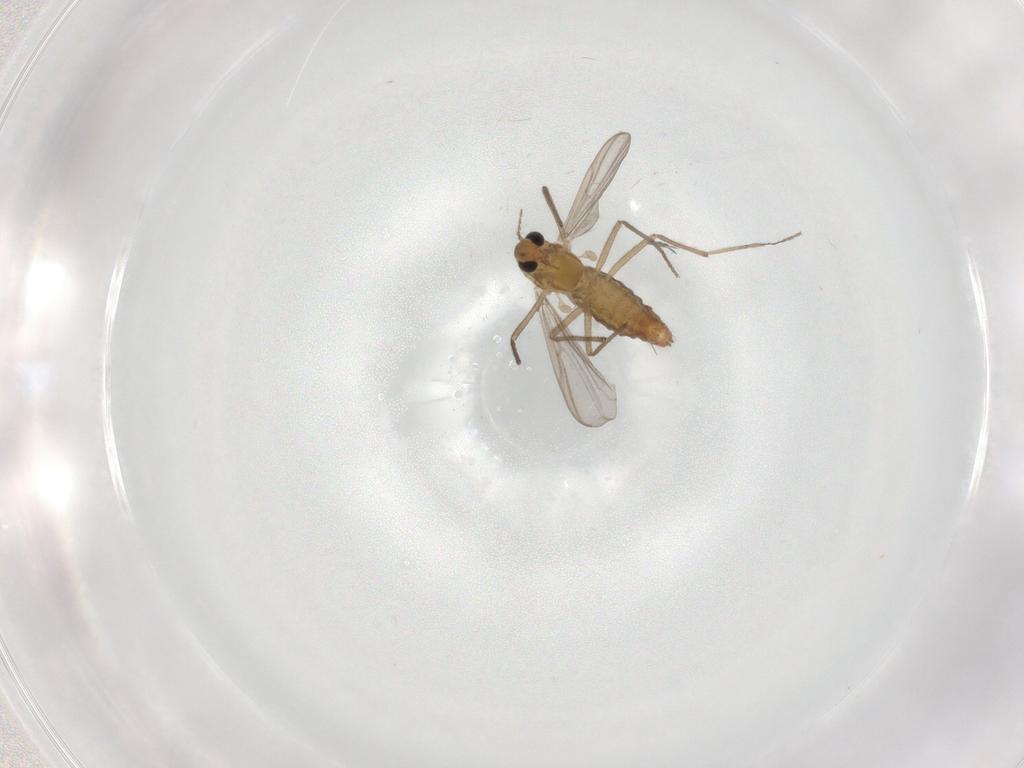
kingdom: Animalia
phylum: Arthropoda
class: Insecta
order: Diptera
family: Chironomidae
